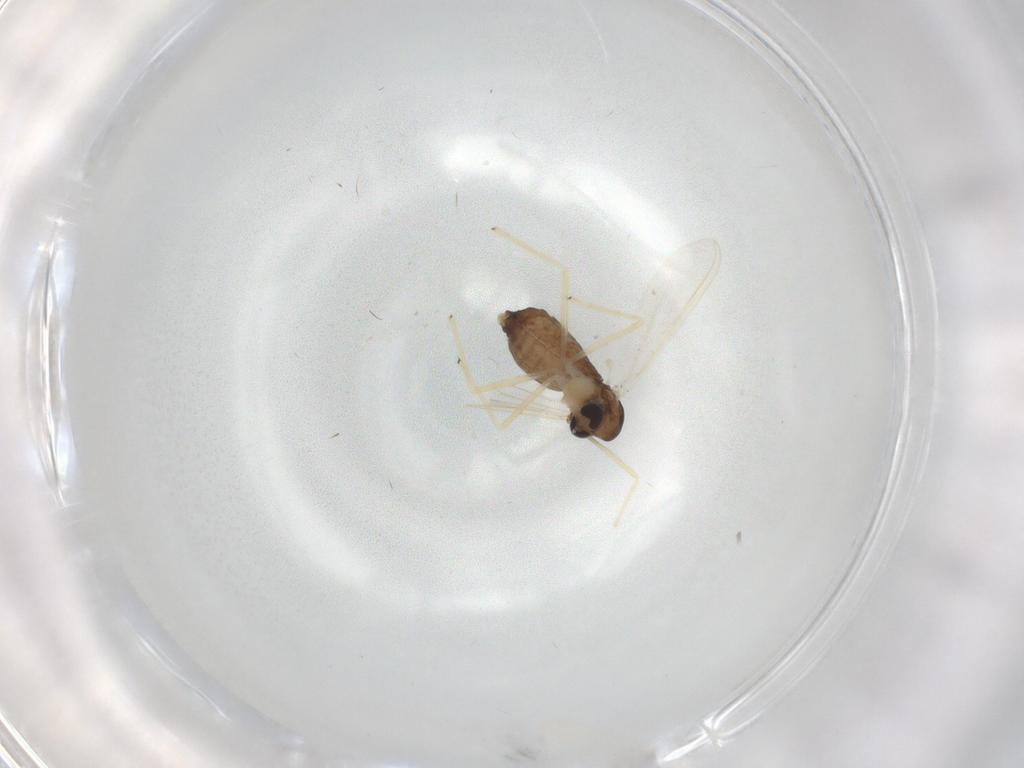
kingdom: Animalia
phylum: Arthropoda
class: Insecta
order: Diptera
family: Chironomidae
